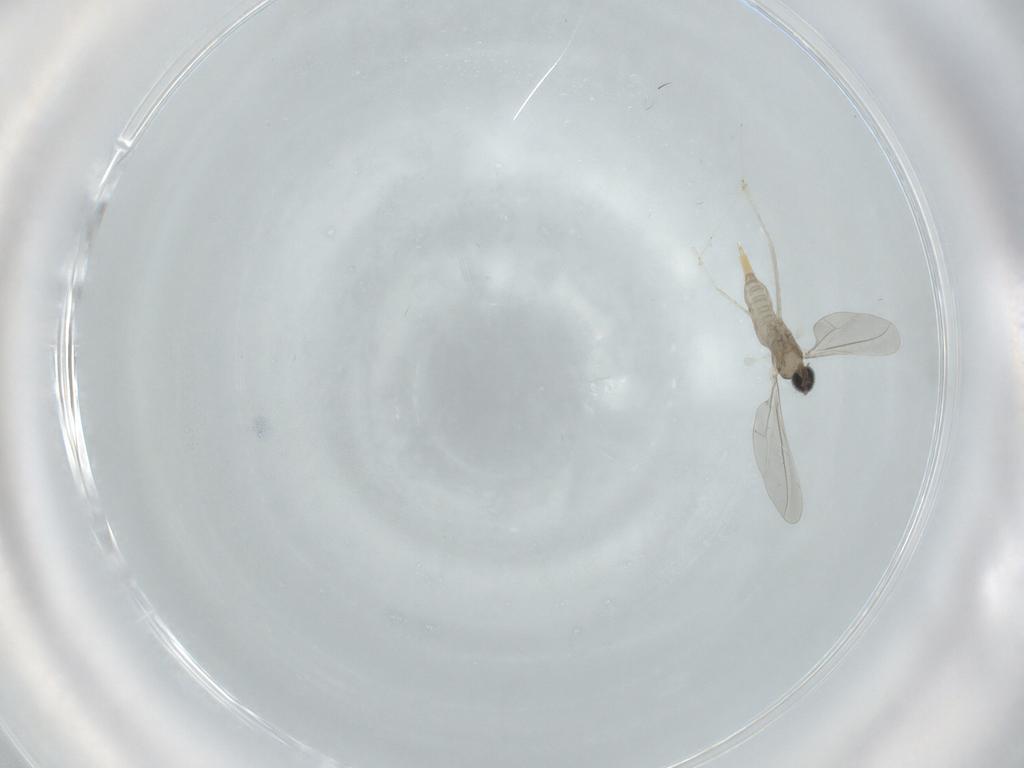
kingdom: Animalia
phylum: Arthropoda
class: Insecta
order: Diptera
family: Cecidomyiidae
